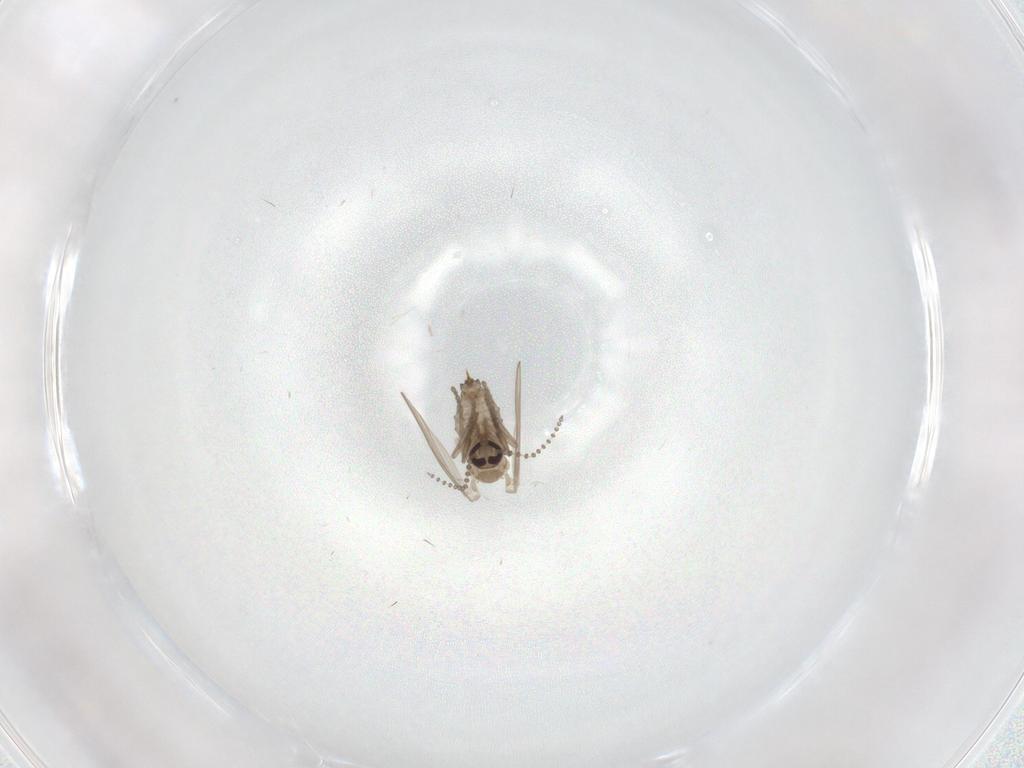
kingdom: Animalia
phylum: Arthropoda
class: Insecta
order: Diptera
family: Psychodidae
